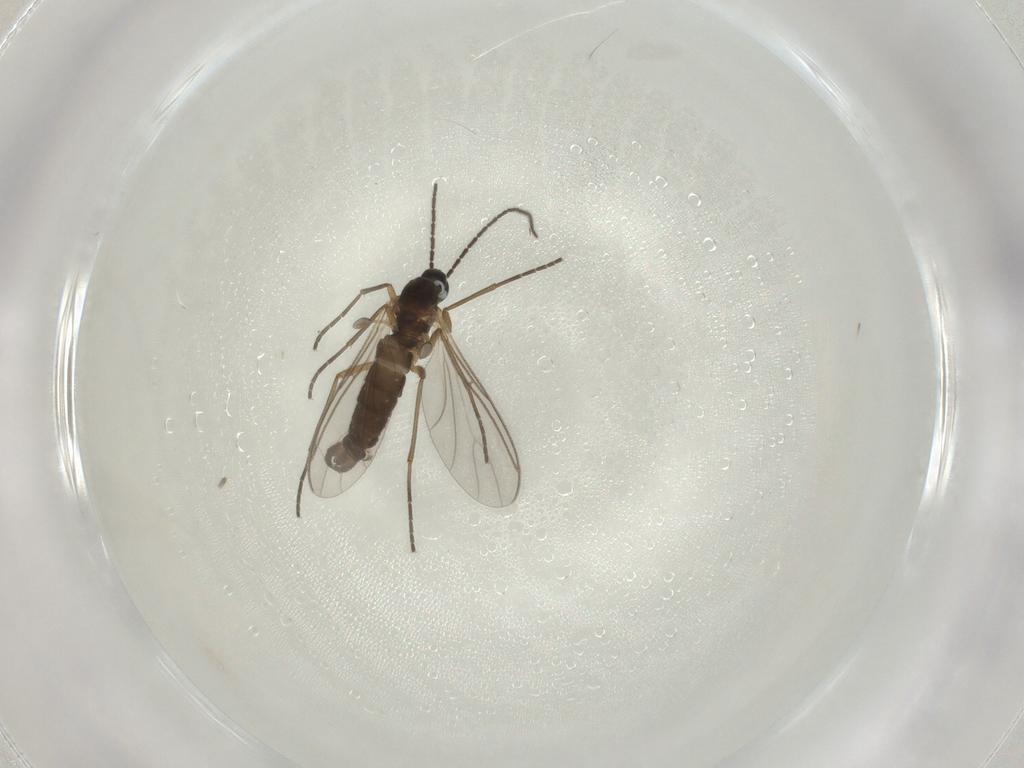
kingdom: Animalia
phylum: Arthropoda
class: Insecta
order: Diptera
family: Sciaridae
